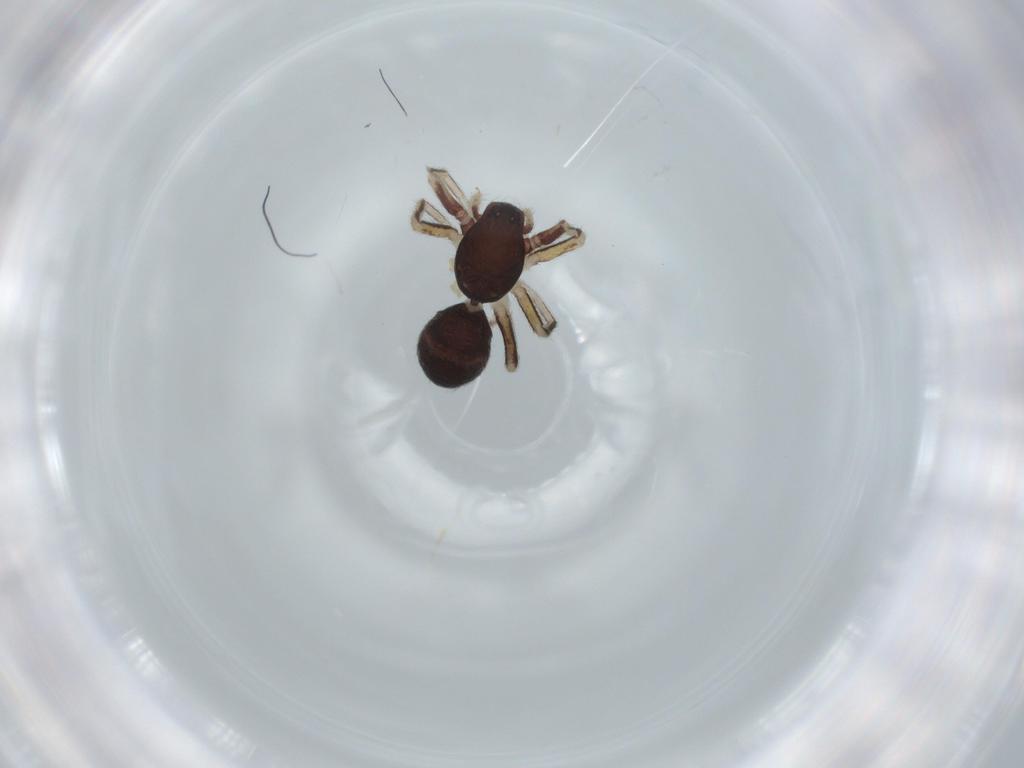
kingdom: Animalia
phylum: Arthropoda
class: Arachnida
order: Araneae
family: Corinnidae
